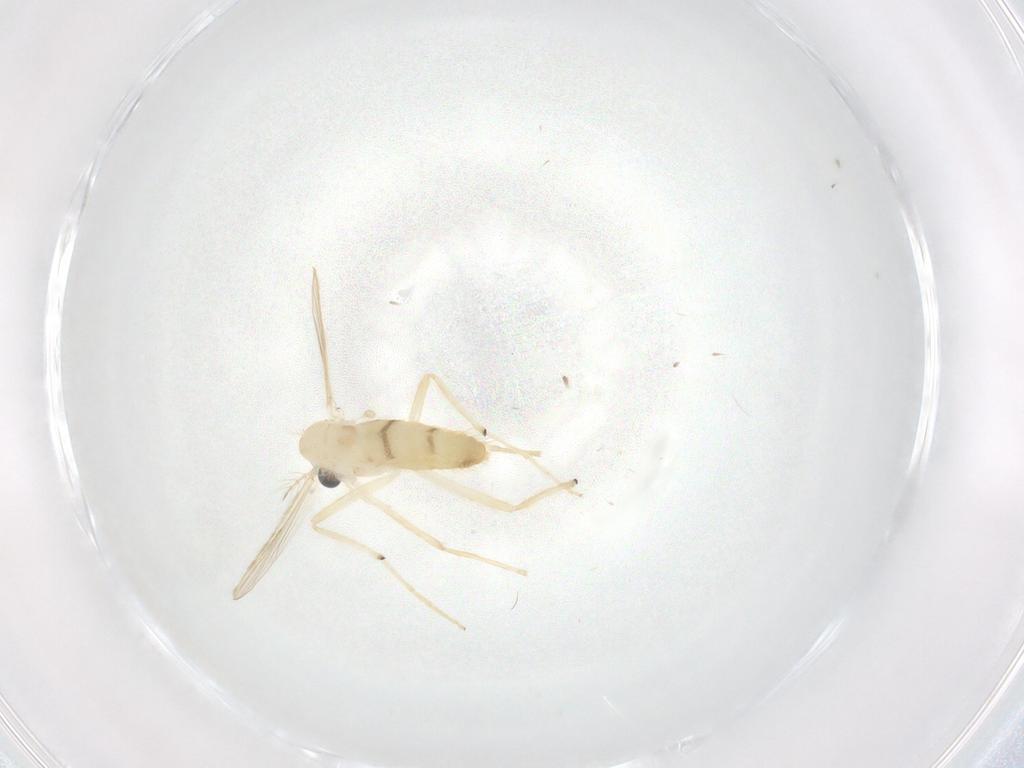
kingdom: Animalia
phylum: Arthropoda
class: Insecta
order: Diptera
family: Chironomidae
